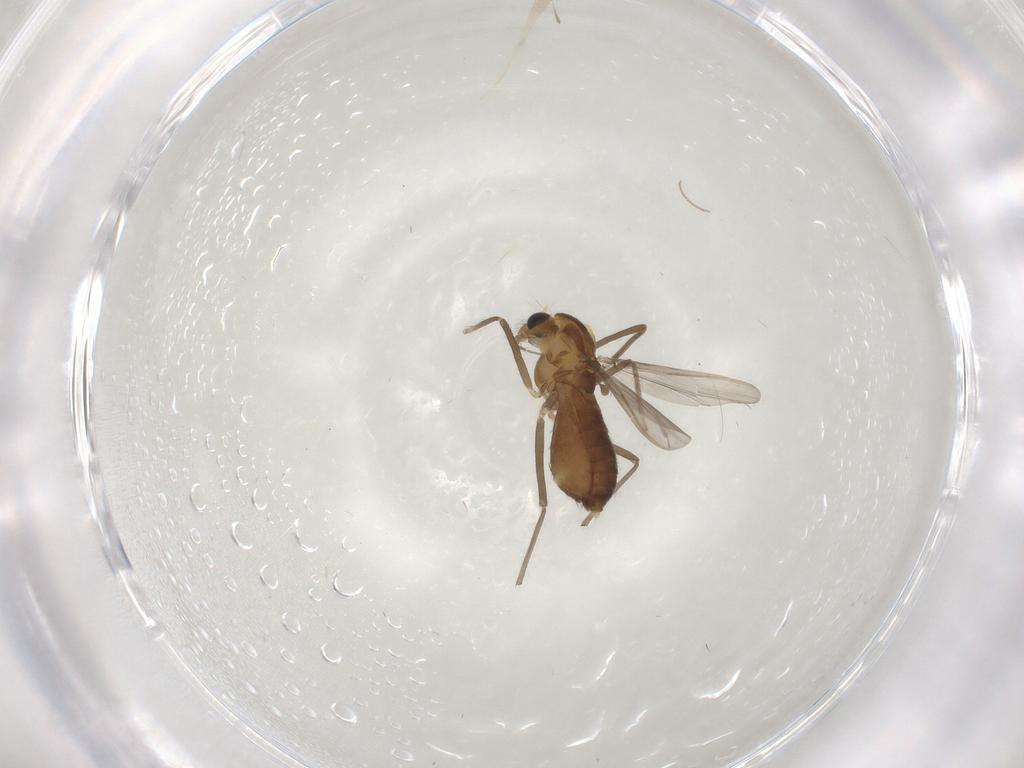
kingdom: Animalia
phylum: Arthropoda
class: Insecta
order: Diptera
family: Chironomidae
